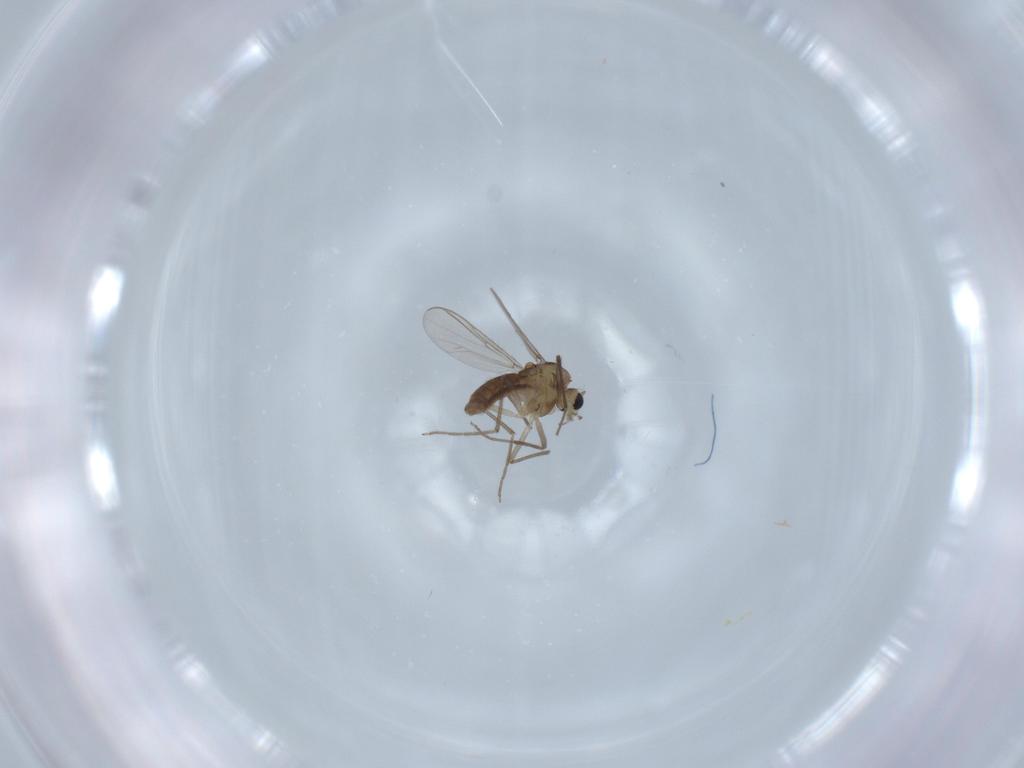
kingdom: Animalia
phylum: Arthropoda
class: Insecta
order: Diptera
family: Chironomidae
